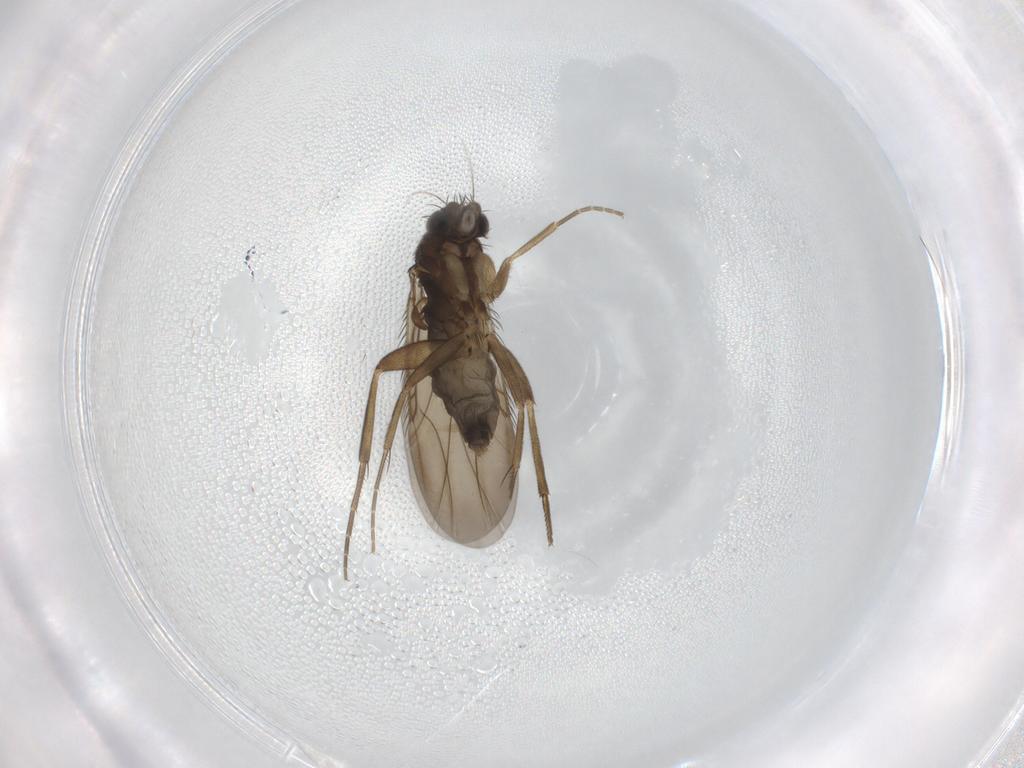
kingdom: Animalia
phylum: Arthropoda
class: Insecta
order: Diptera
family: Phoridae
